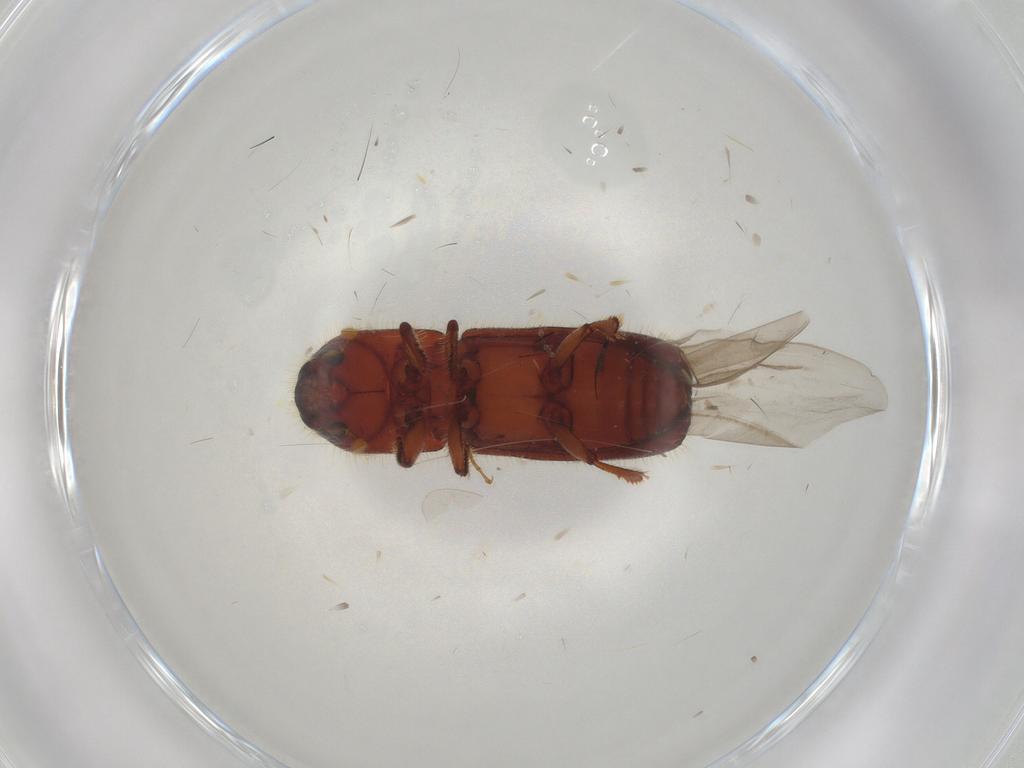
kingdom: Animalia
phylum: Arthropoda
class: Insecta
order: Coleoptera
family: Curculionidae
